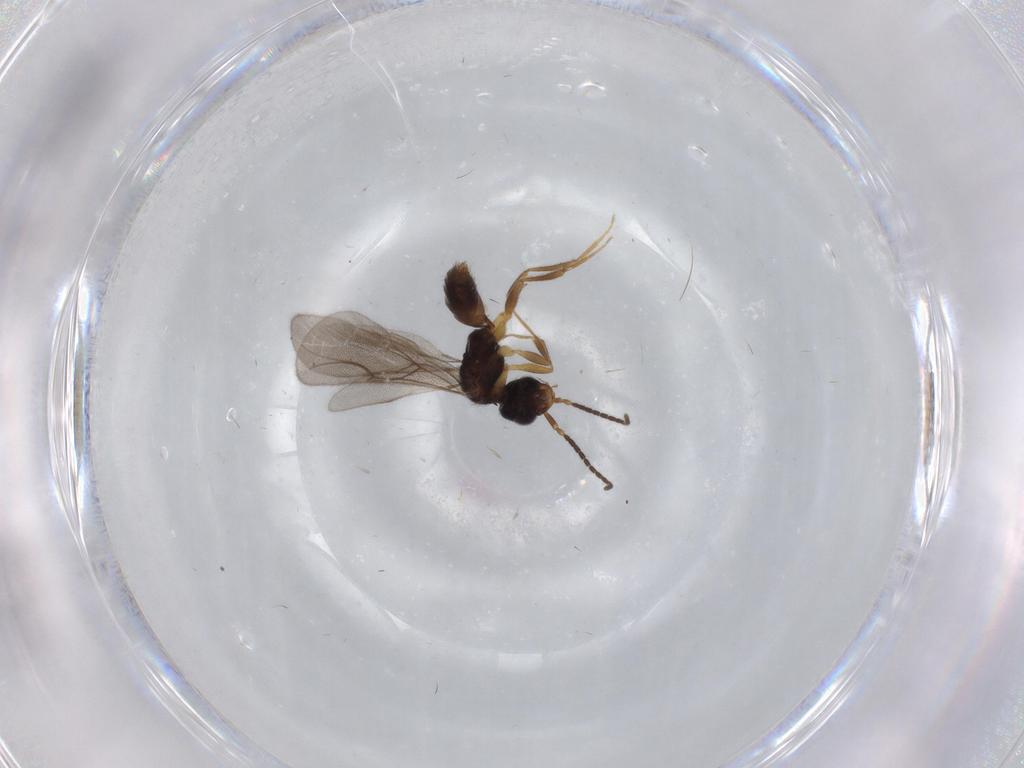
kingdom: Animalia
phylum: Arthropoda
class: Insecta
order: Hymenoptera
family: Bethylidae
